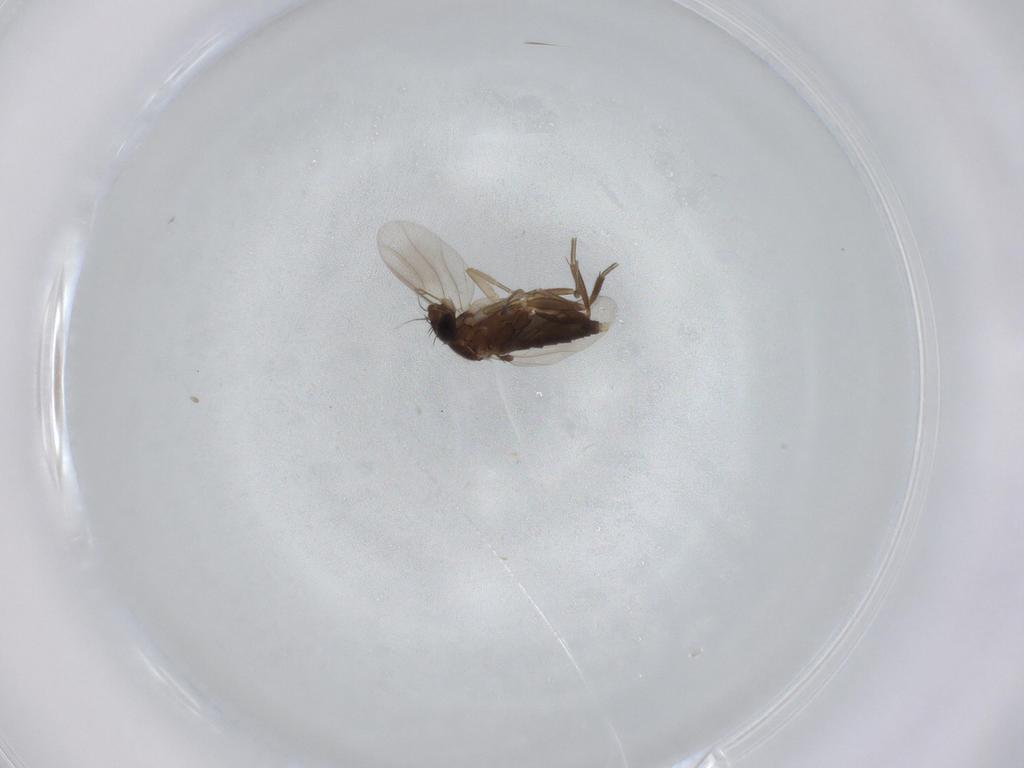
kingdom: Animalia
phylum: Arthropoda
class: Insecta
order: Diptera
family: Phoridae
